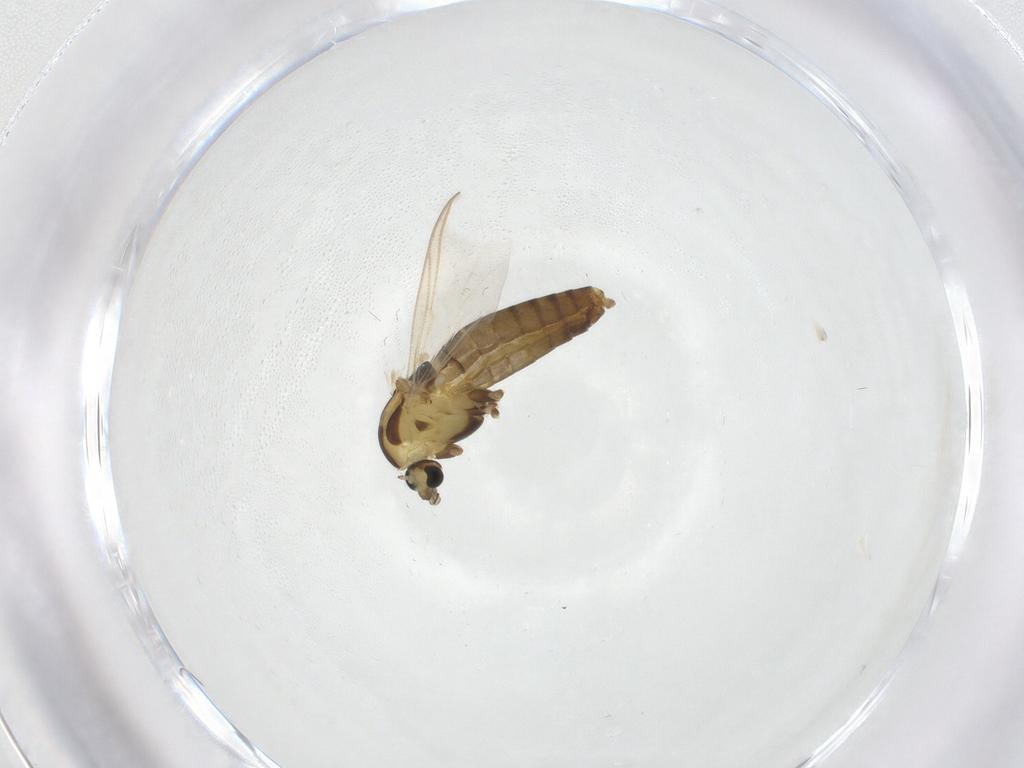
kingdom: Animalia
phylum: Arthropoda
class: Insecta
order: Diptera
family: Chironomidae
